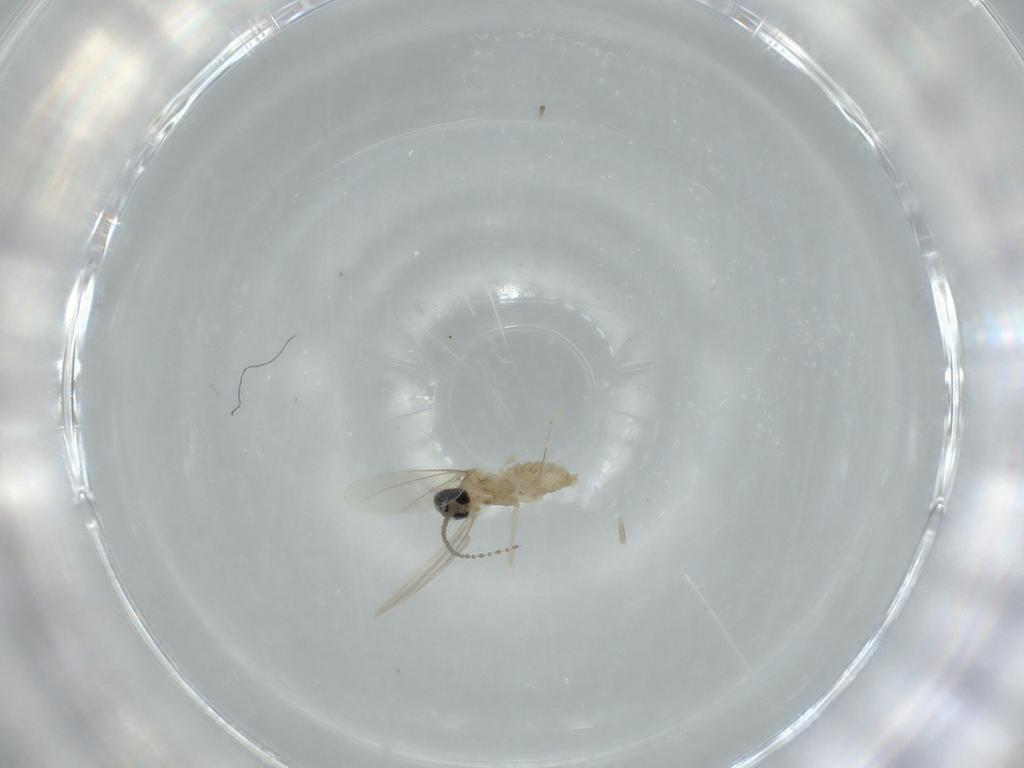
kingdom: Animalia
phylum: Arthropoda
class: Insecta
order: Diptera
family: Cecidomyiidae
